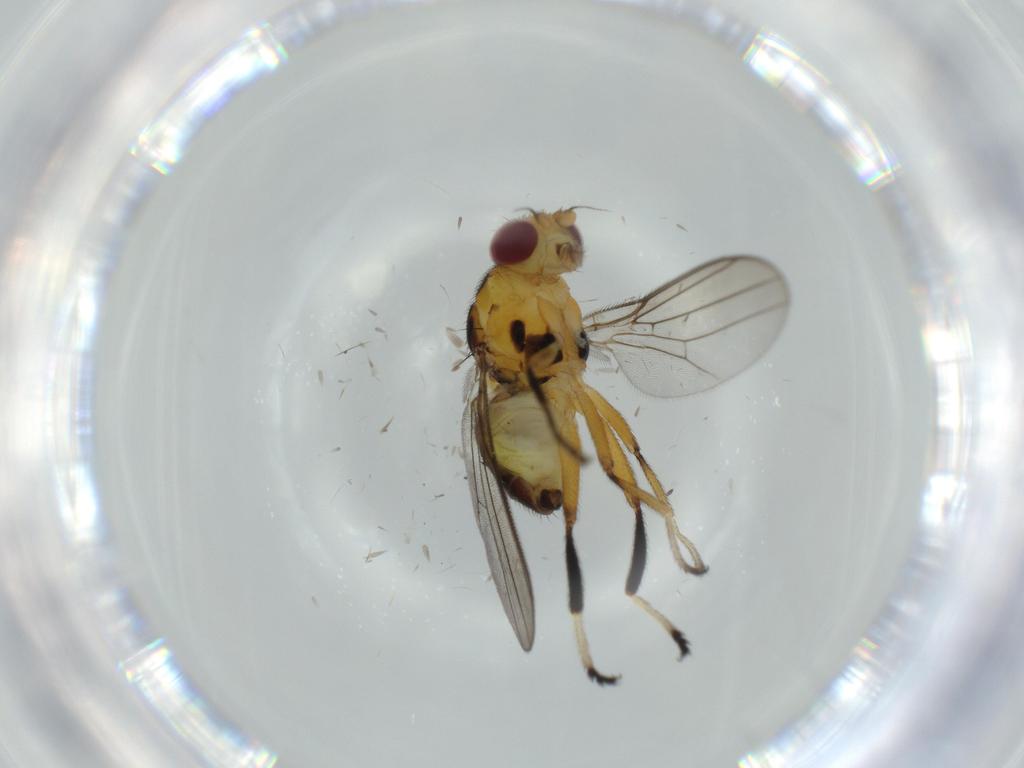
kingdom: Animalia
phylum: Arthropoda
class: Insecta
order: Diptera
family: Chloropidae
